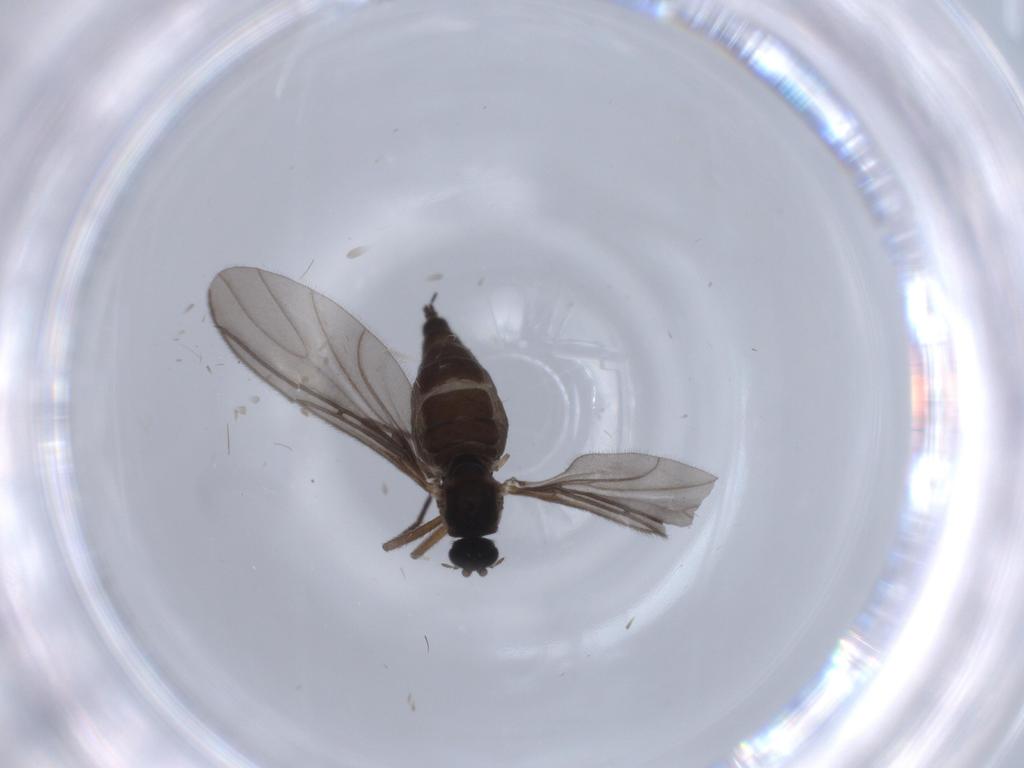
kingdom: Animalia
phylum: Arthropoda
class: Insecta
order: Diptera
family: Sciaridae
